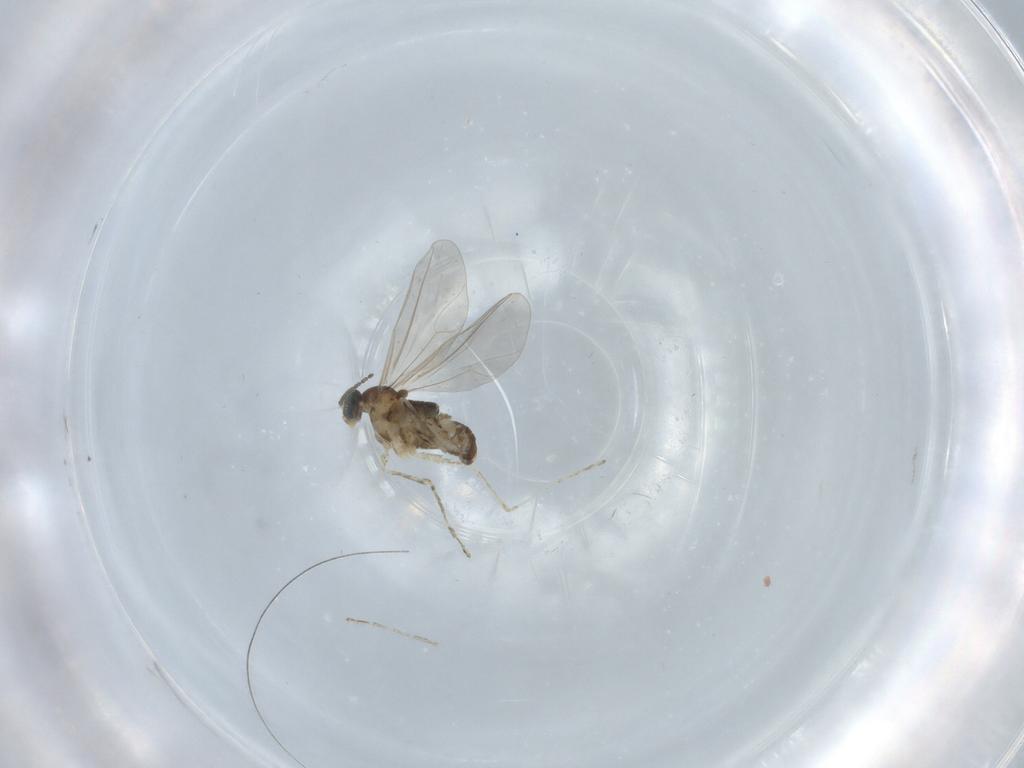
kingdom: Animalia
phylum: Arthropoda
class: Insecta
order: Diptera
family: Cecidomyiidae
